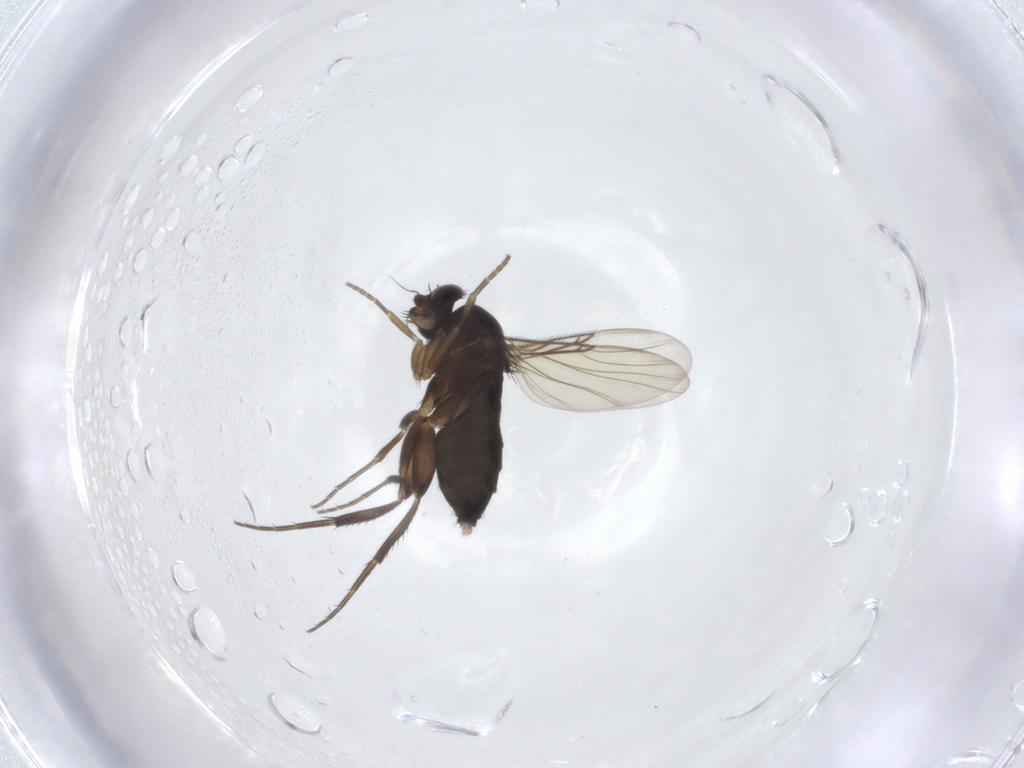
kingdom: Animalia
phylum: Arthropoda
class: Insecta
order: Diptera
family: Phoridae
